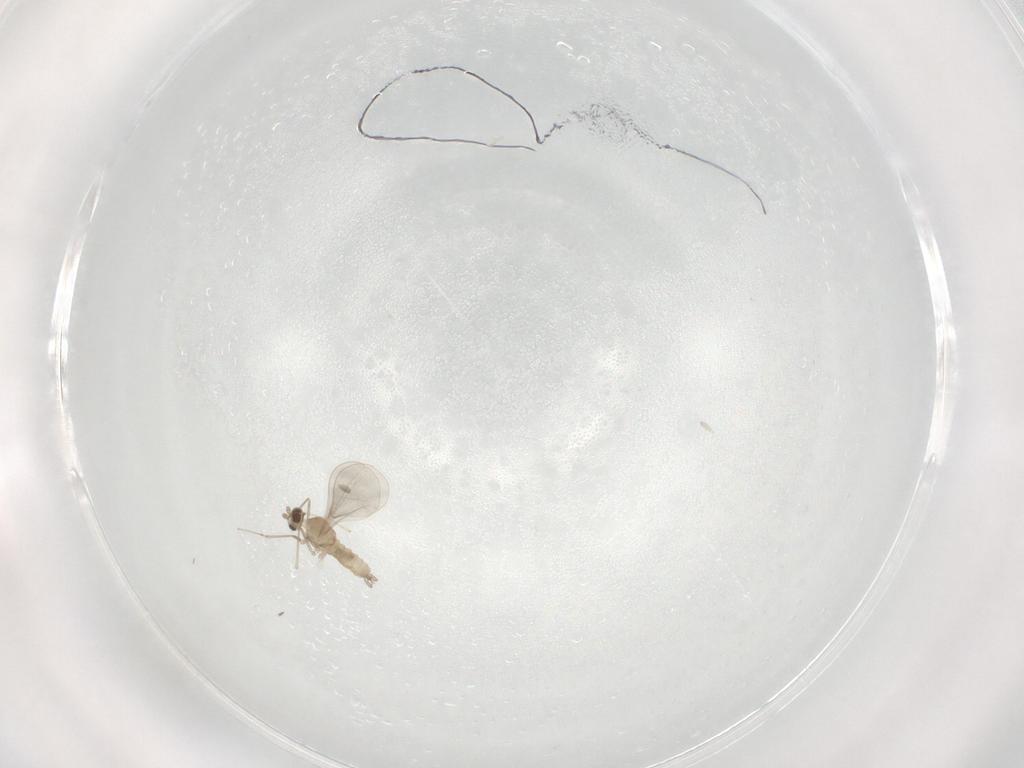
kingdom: Animalia
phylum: Arthropoda
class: Insecta
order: Diptera
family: Cecidomyiidae
